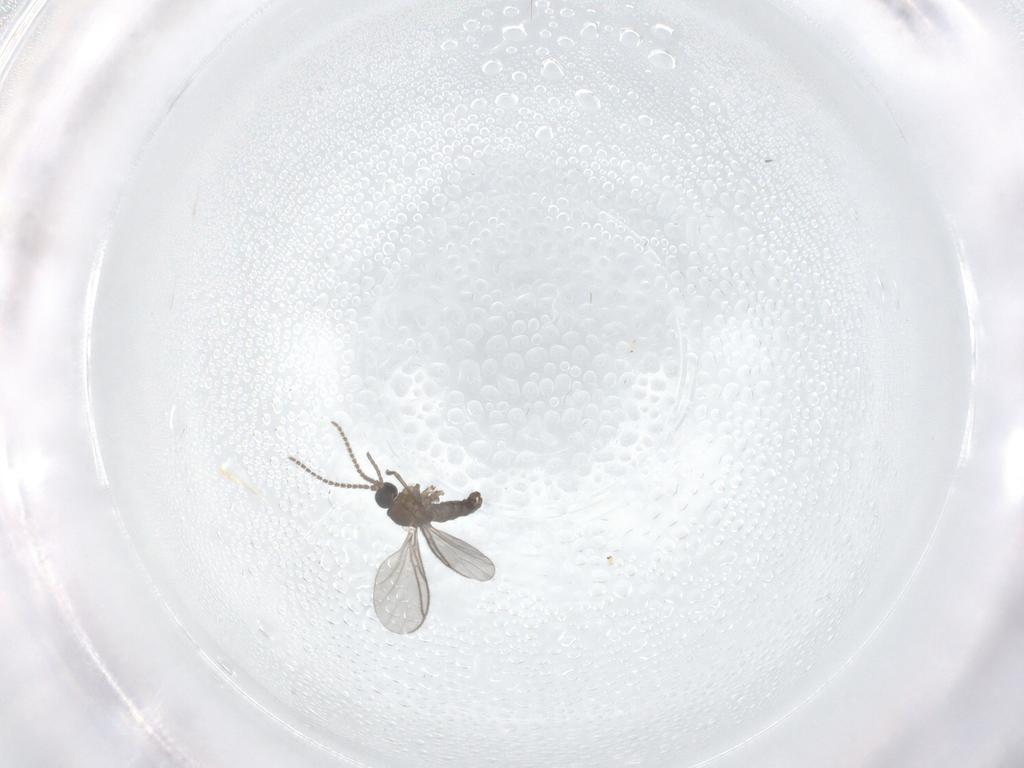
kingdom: Animalia
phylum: Arthropoda
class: Insecta
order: Diptera
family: Sciaridae
